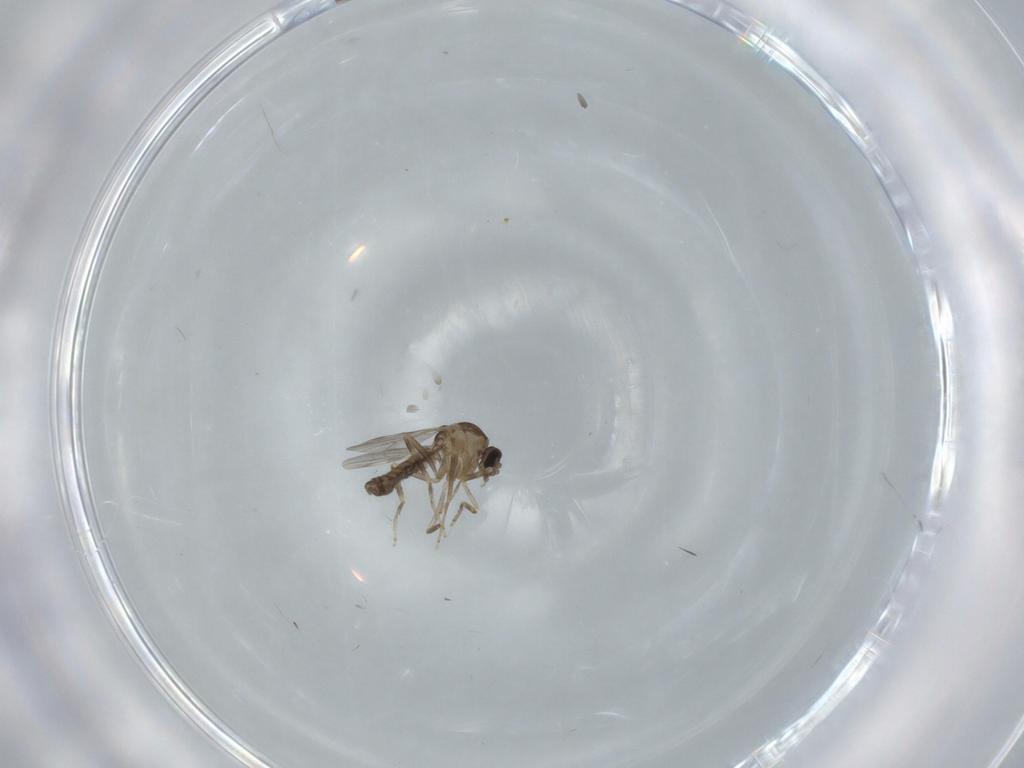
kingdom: Animalia
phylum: Arthropoda
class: Insecta
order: Diptera
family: Ceratopogonidae
